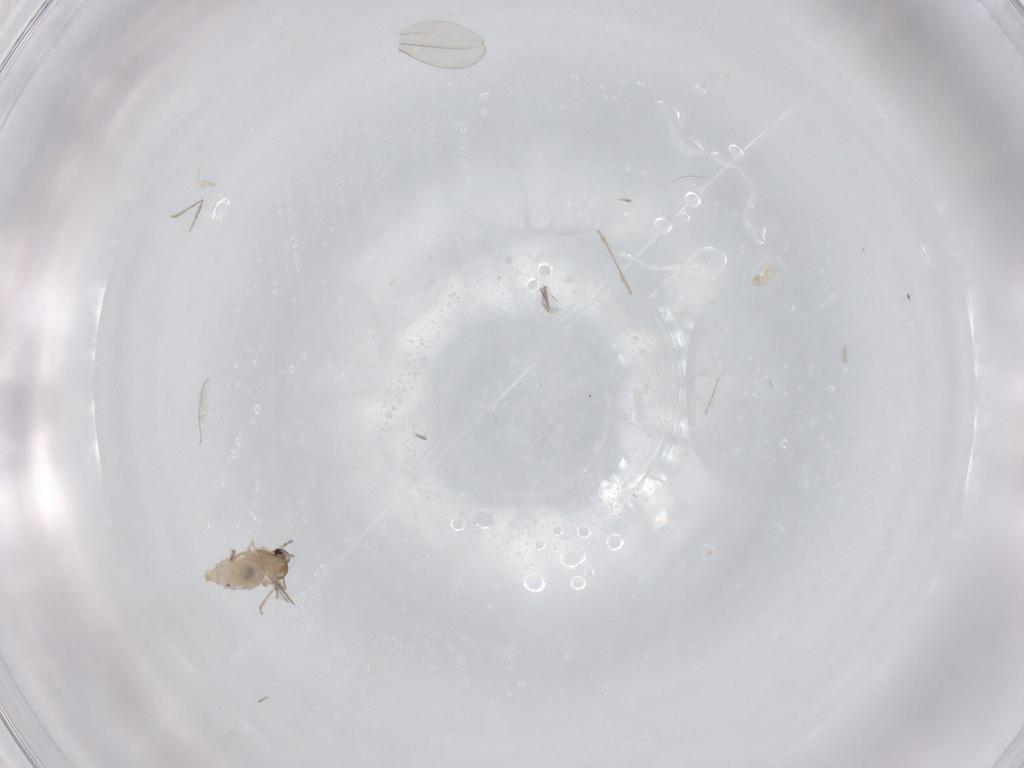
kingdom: Animalia
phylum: Arthropoda
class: Insecta
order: Diptera
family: Cecidomyiidae
